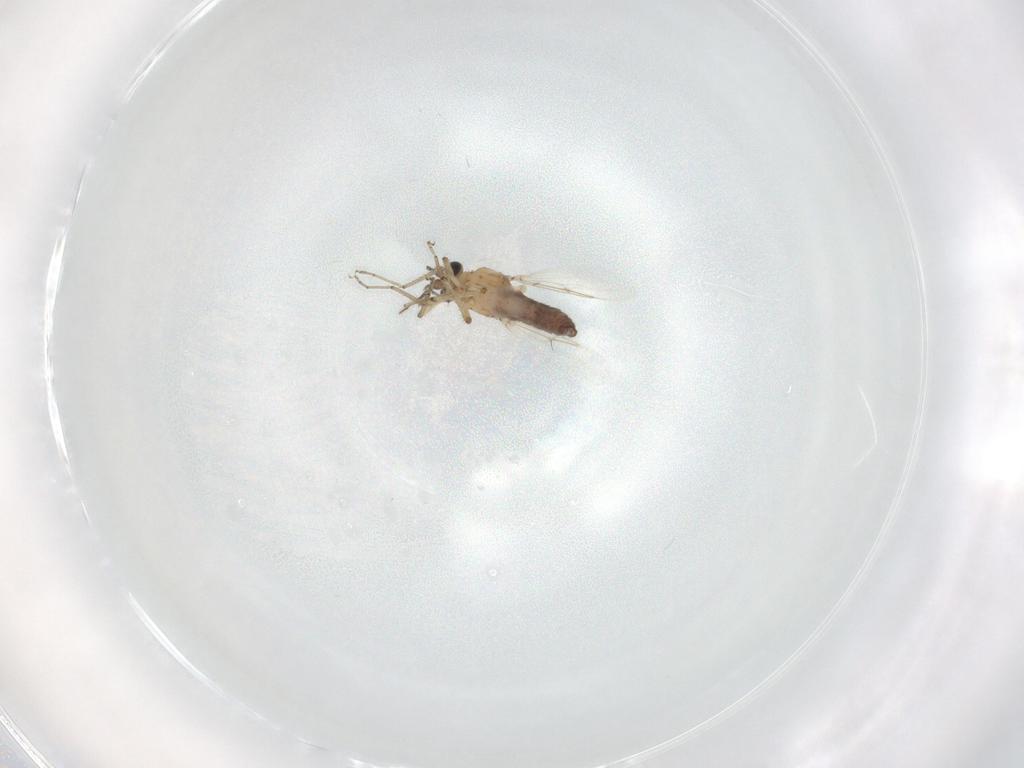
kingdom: Animalia
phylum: Arthropoda
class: Insecta
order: Diptera
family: Ceratopogonidae
